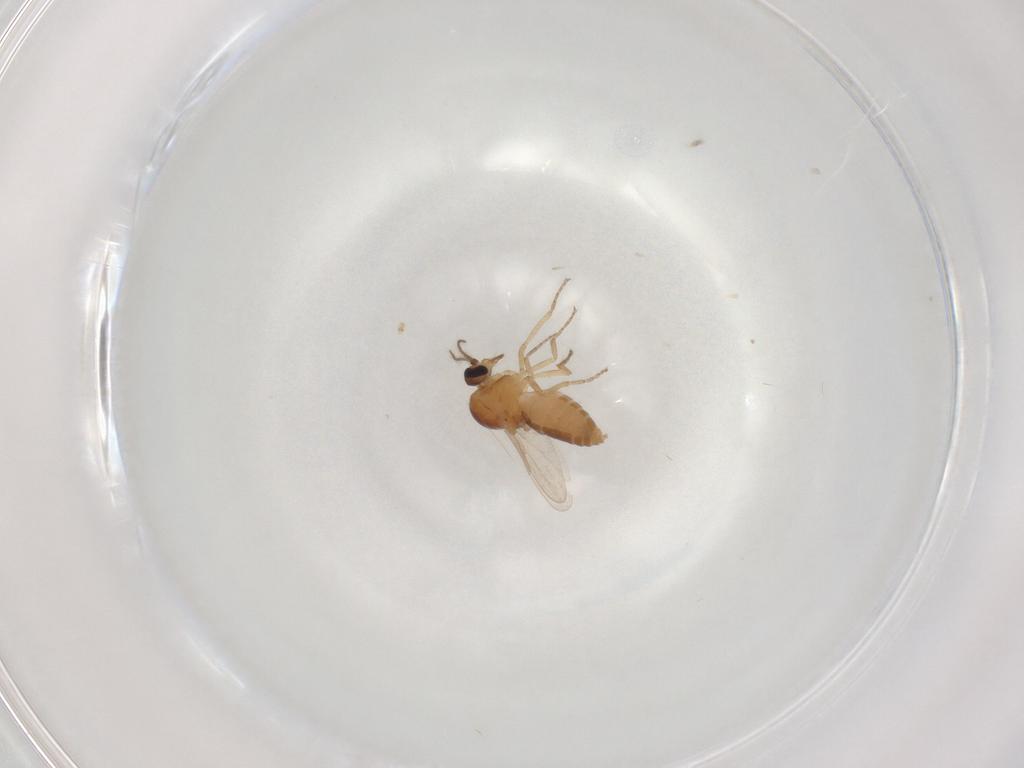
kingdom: Animalia
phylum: Arthropoda
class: Insecta
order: Diptera
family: Ceratopogonidae
